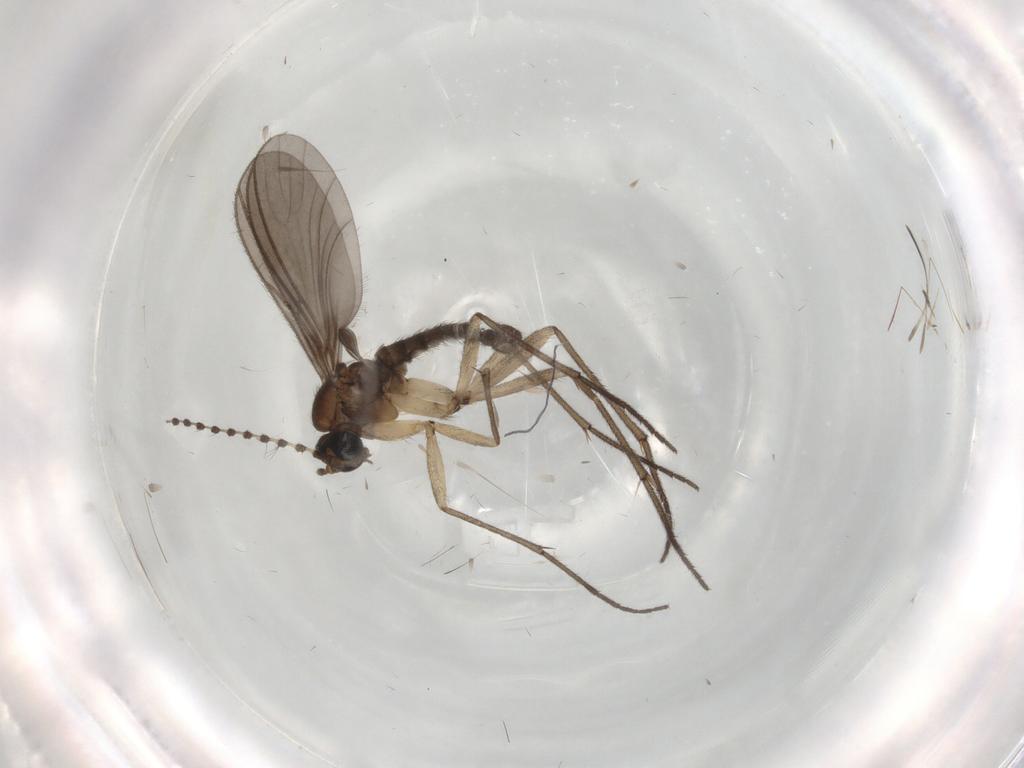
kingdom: Animalia
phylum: Arthropoda
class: Insecta
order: Diptera
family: Sciaridae
